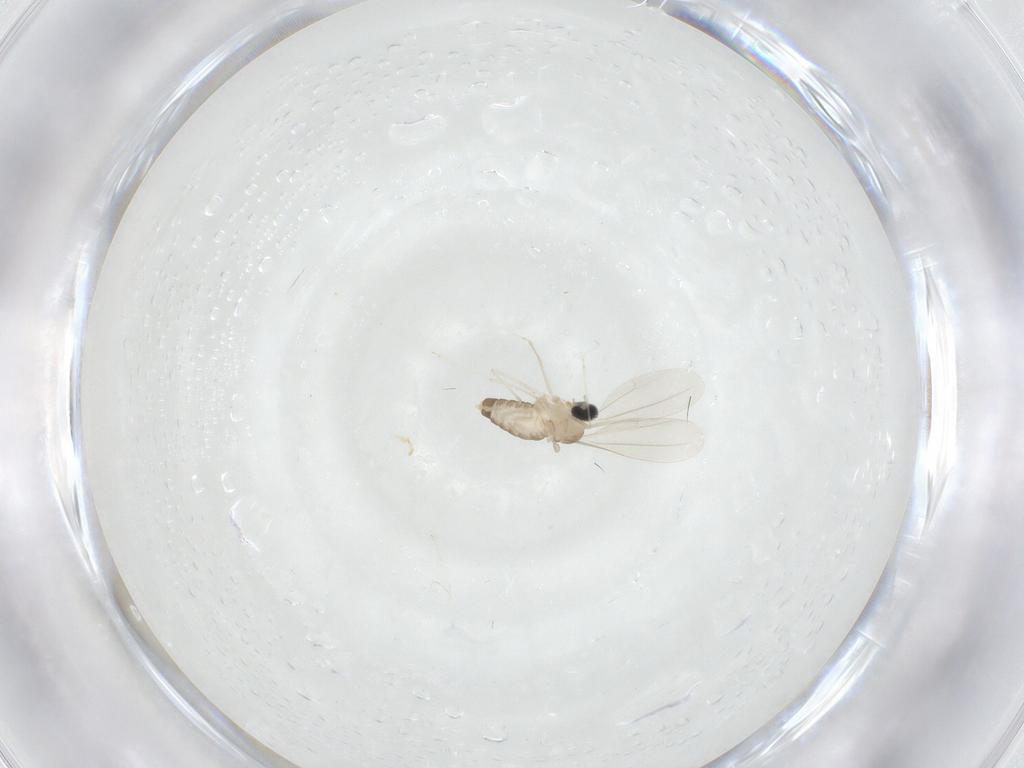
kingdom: Animalia
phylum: Arthropoda
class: Insecta
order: Diptera
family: Cecidomyiidae
